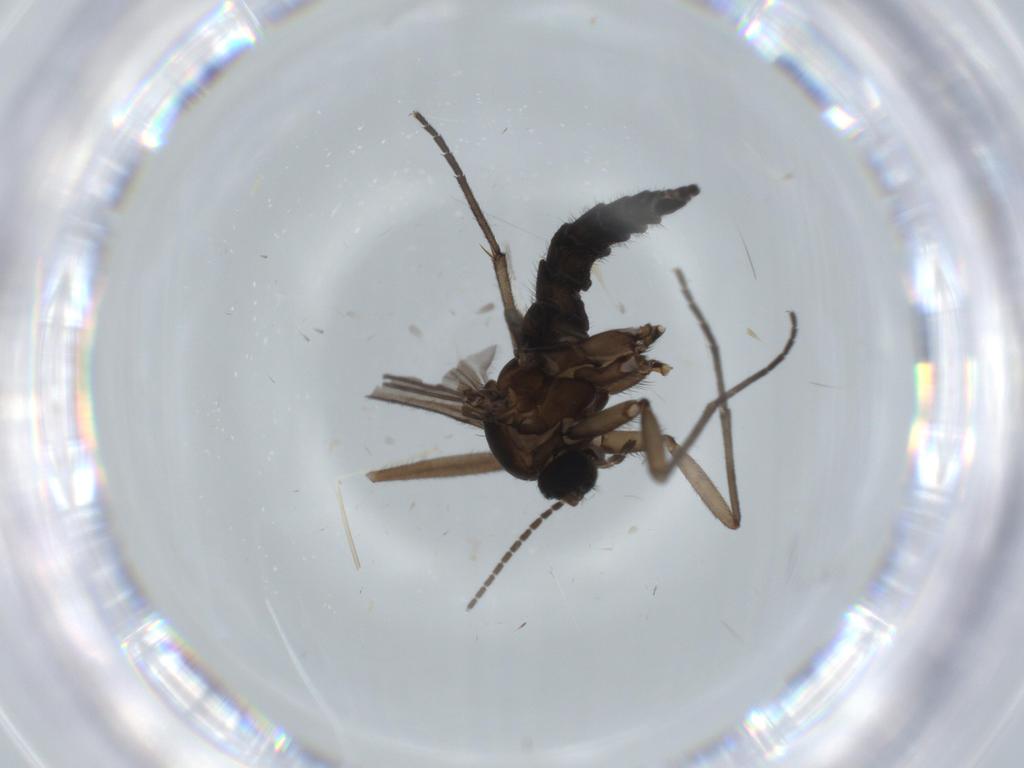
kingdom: Animalia
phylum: Arthropoda
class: Insecta
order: Diptera
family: Sciaridae
